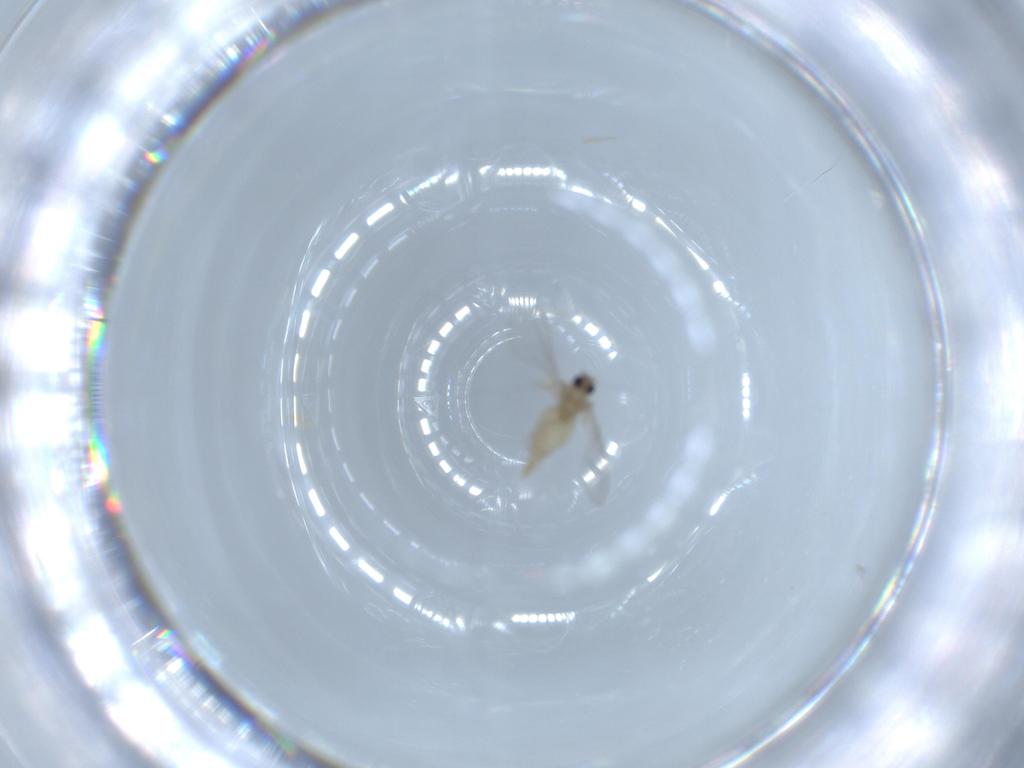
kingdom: Animalia
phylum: Arthropoda
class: Insecta
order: Diptera
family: Cecidomyiidae
